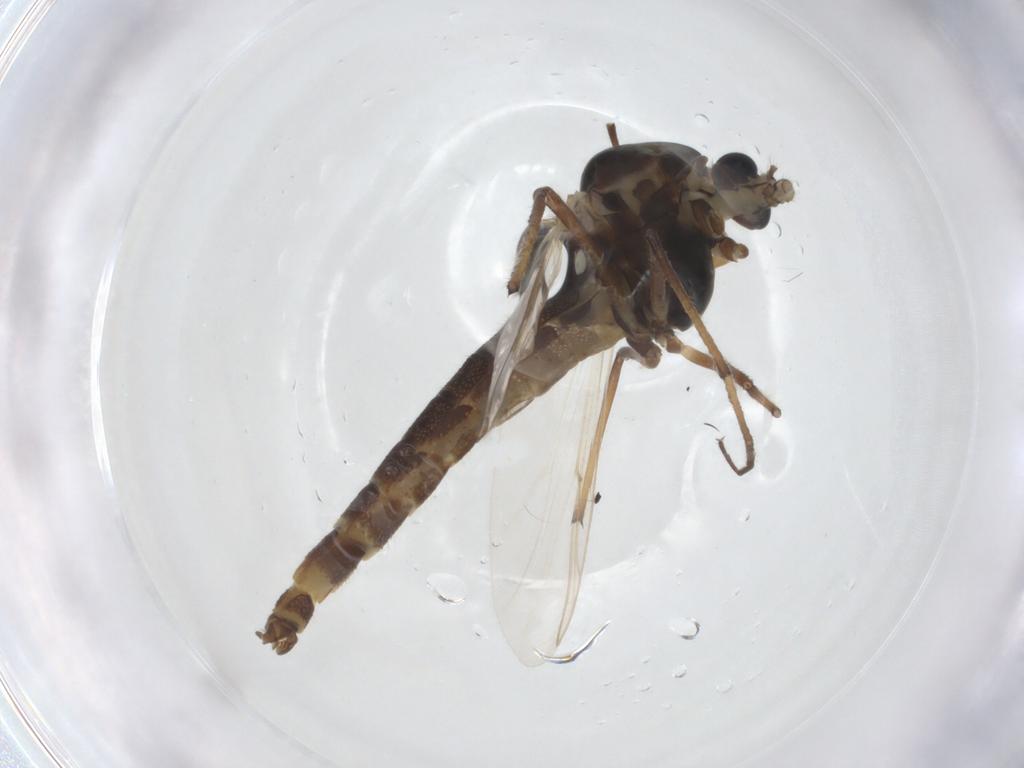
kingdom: Animalia
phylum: Arthropoda
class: Insecta
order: Diptera
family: Chironomidae
